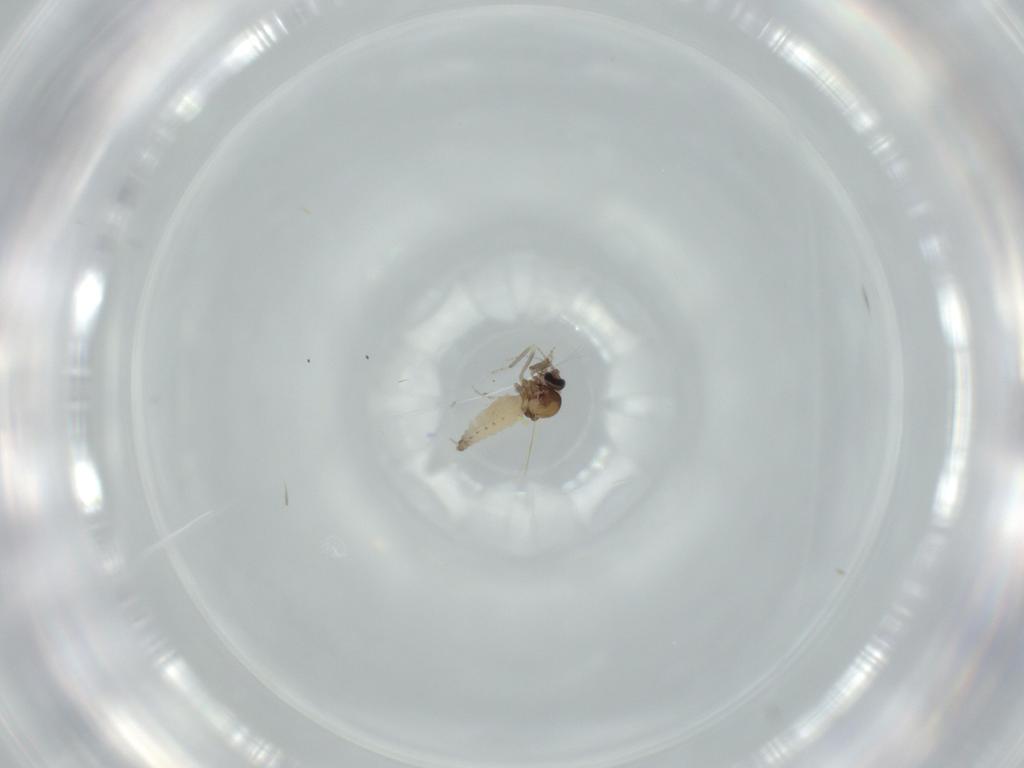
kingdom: Animalia
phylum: Arthropoda
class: Insecta
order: Diptera
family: Ceratopogonidae
